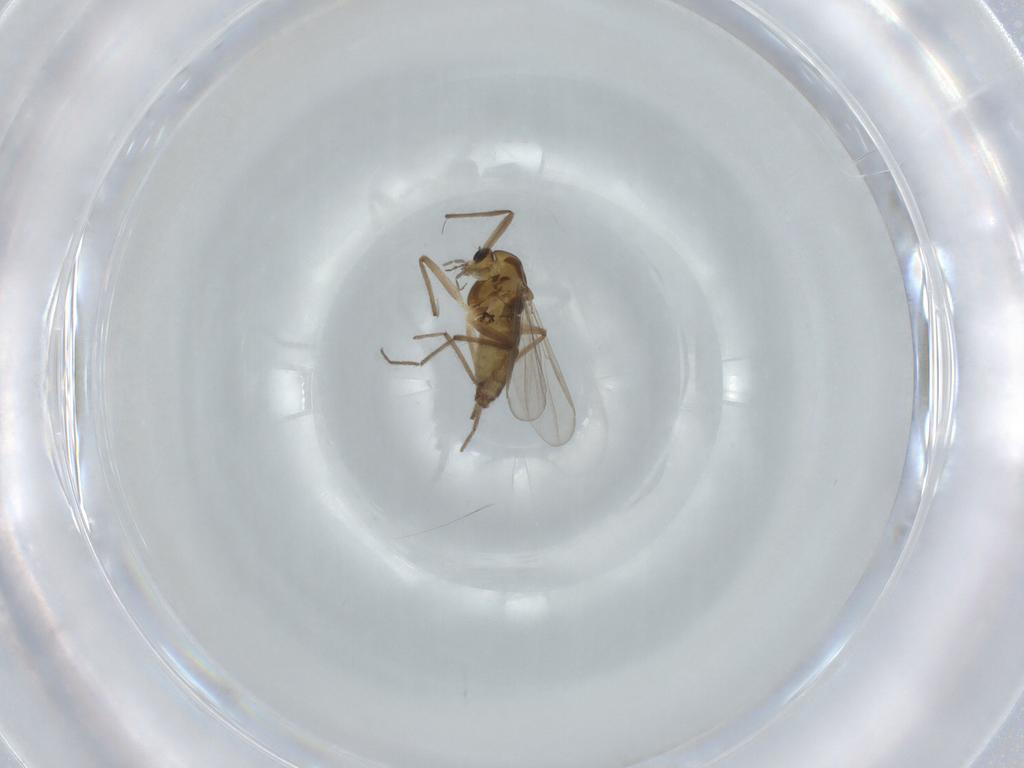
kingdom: Animalia
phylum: Arthropoda
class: Insecta
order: Diptera
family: Chironomidae
